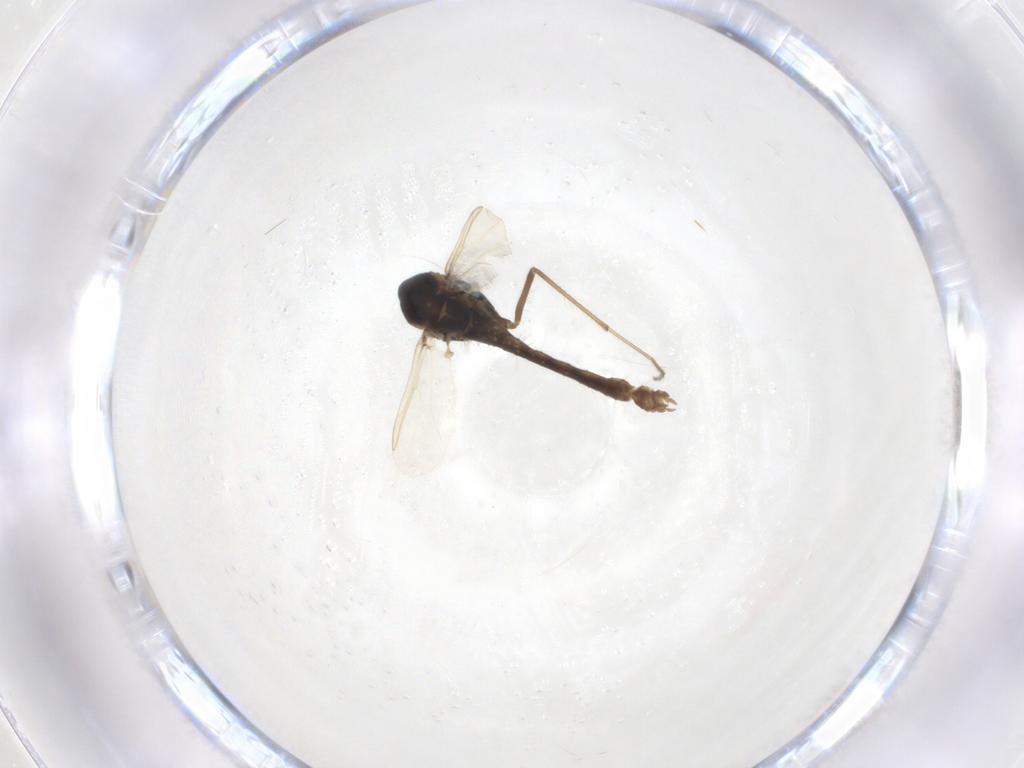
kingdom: Animalia
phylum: Arthropoda
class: Insecta
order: Diptera
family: Chironomidae
